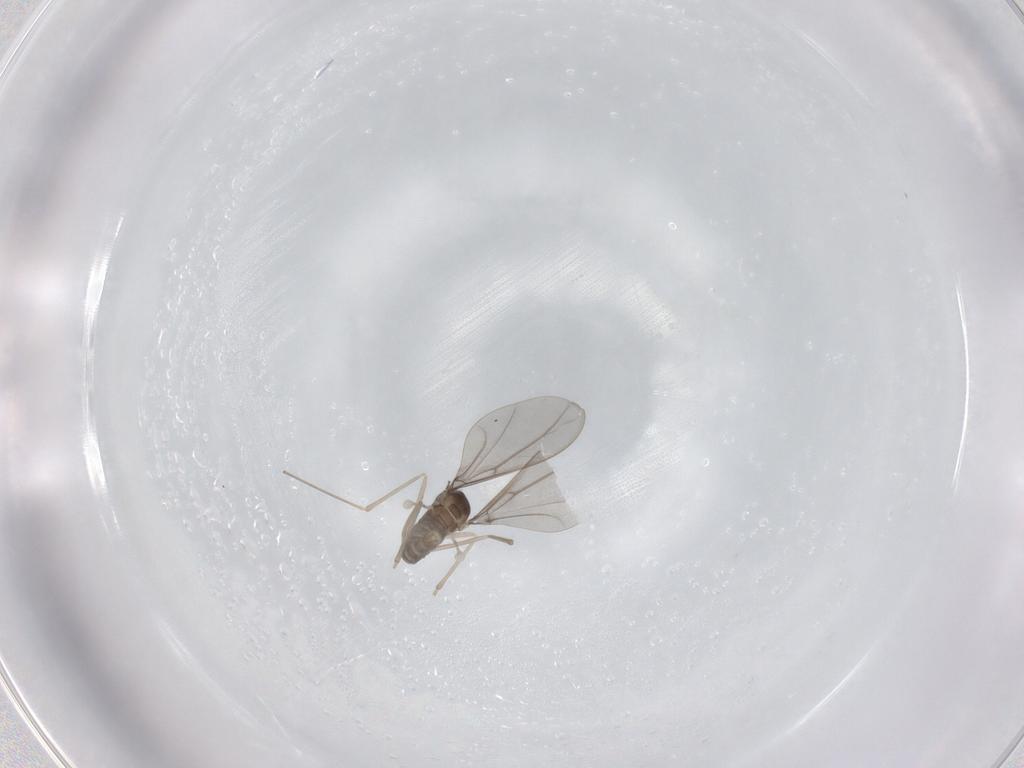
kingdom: Animalia
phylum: Arthropoda
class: Insecta
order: Diptera
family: Cecidomyiidae
